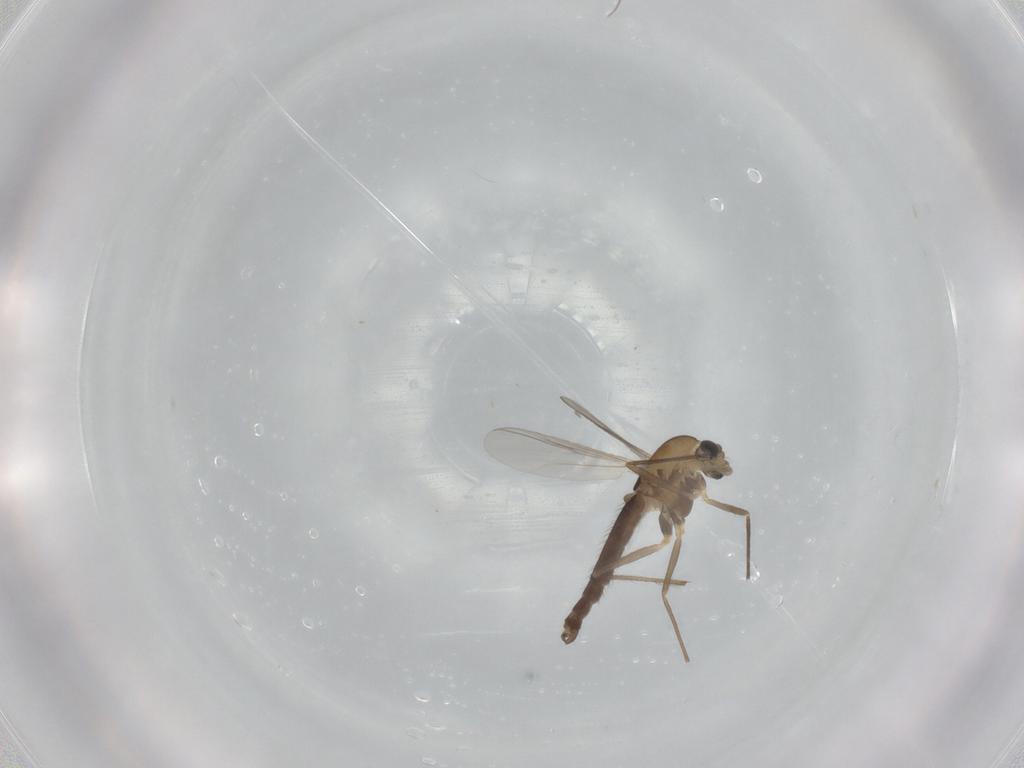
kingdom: Animalia
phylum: Arthropoda
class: Insecta
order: Diptera
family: Chironomidae
